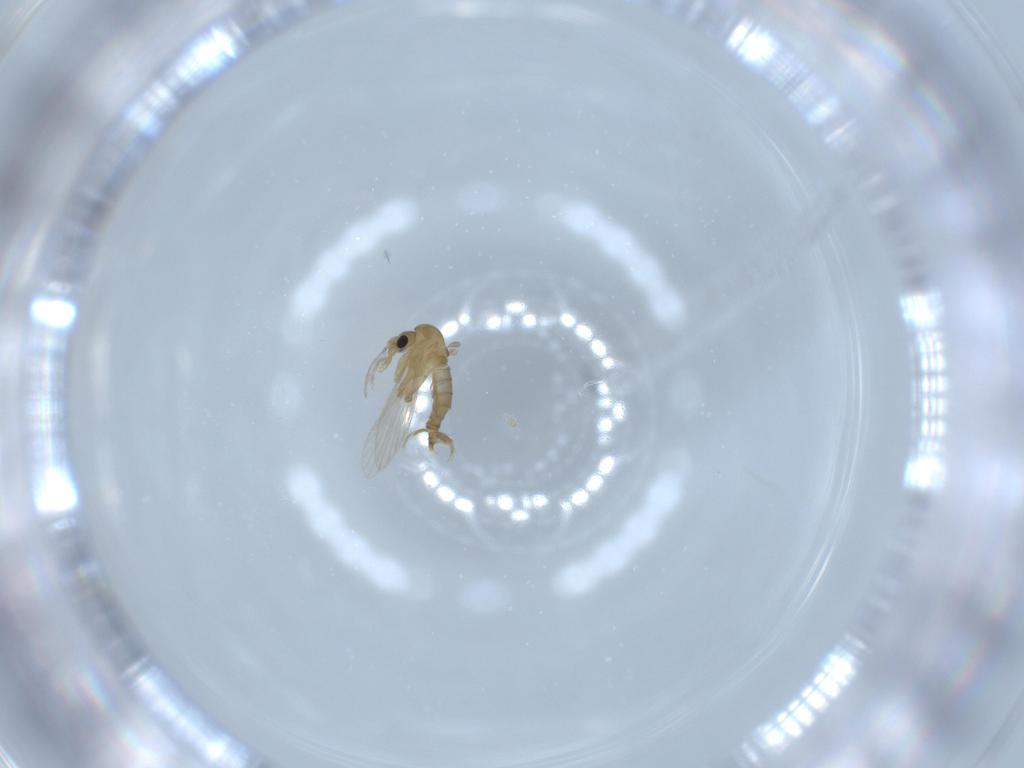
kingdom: Animalia
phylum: Arthropoda
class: Insecta
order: Diptera
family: Psychodidae
